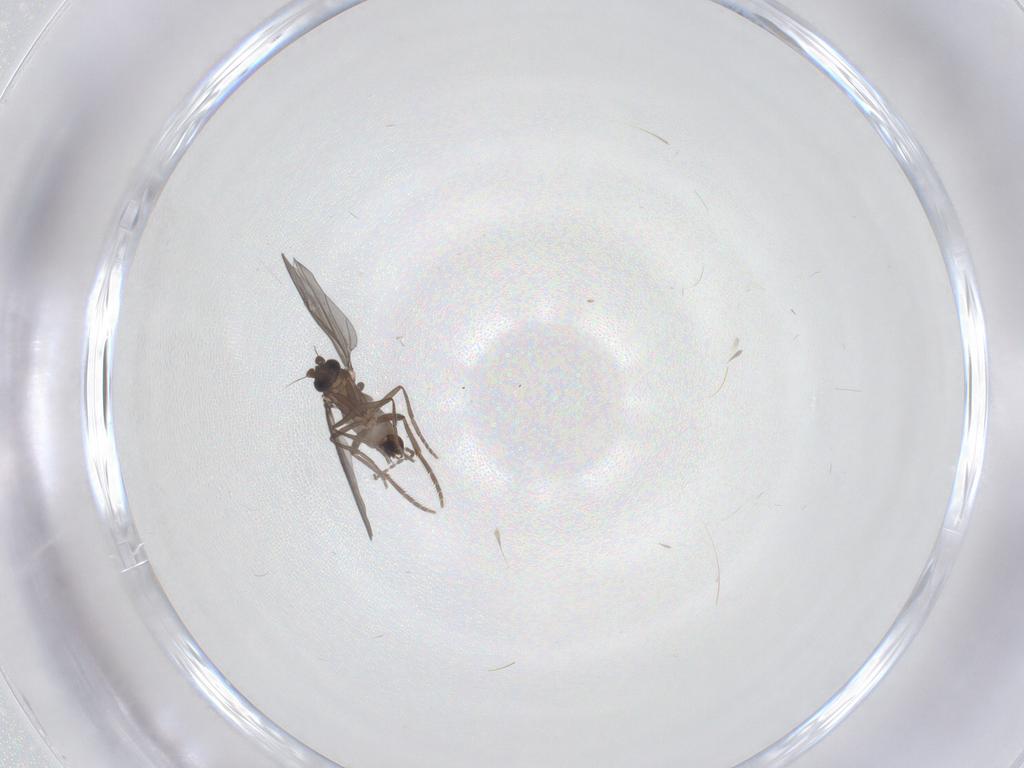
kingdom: Animalia
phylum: Arthropoda
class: Insecta
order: Diptera
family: Phoridae
